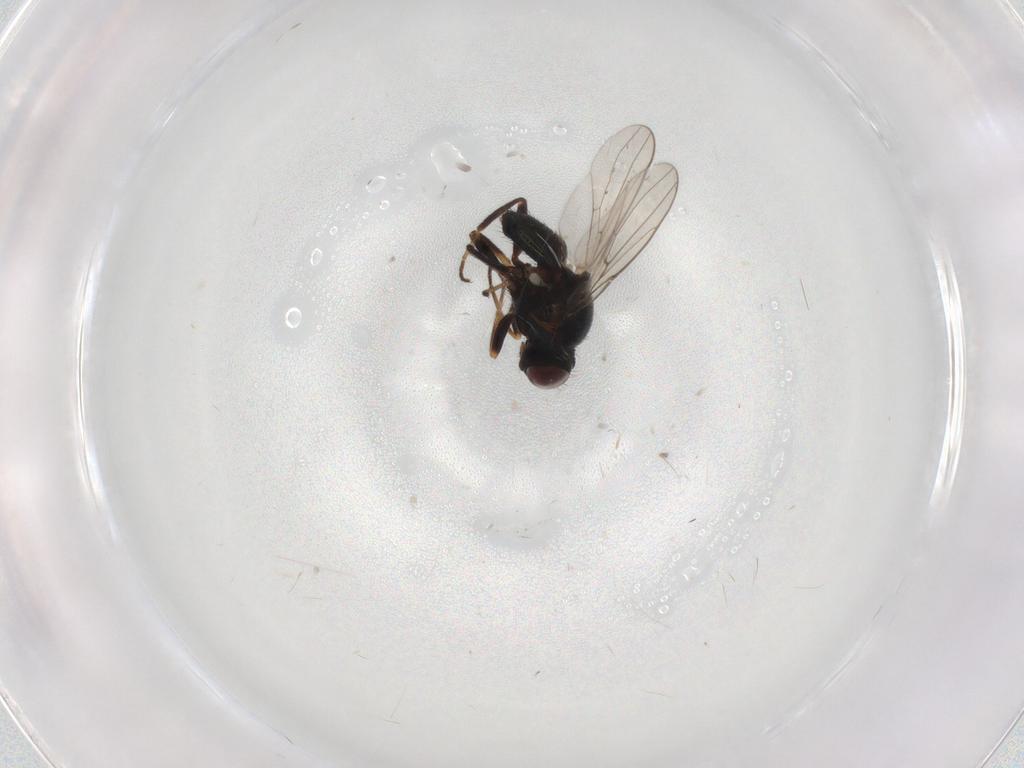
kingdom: Animalia
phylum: Arthropoda
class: Insecta
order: Diptera
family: Chloropidae
